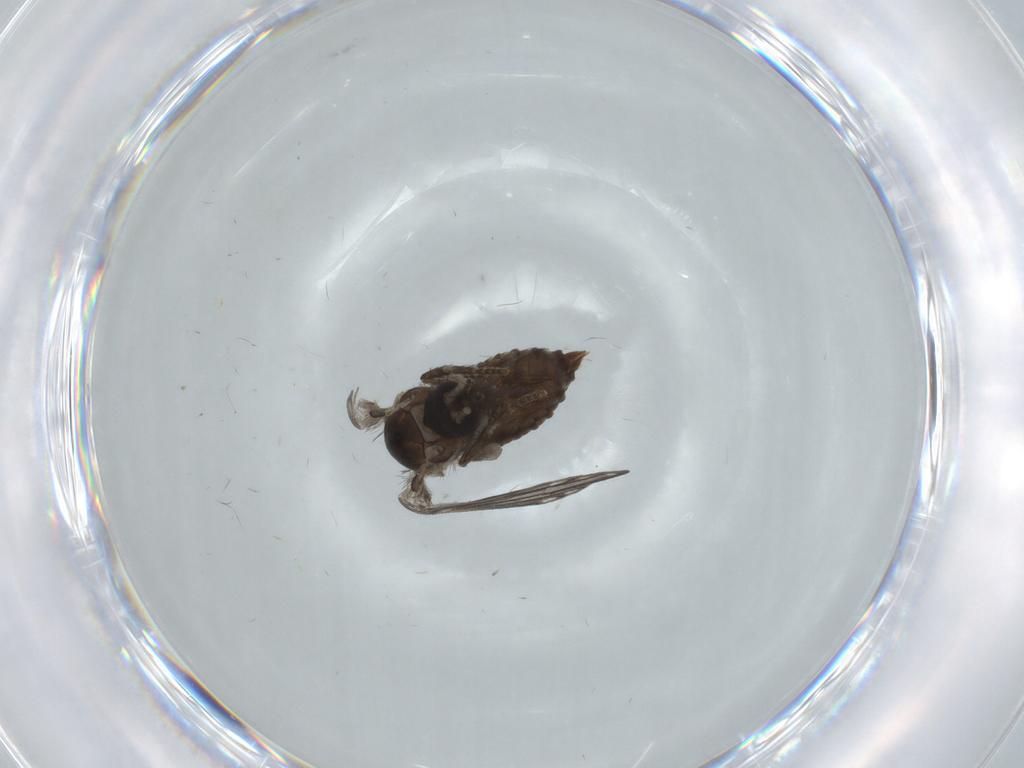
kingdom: Animalia
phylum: Arthropoda
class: Insecta
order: Diptera
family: Psychodidae
